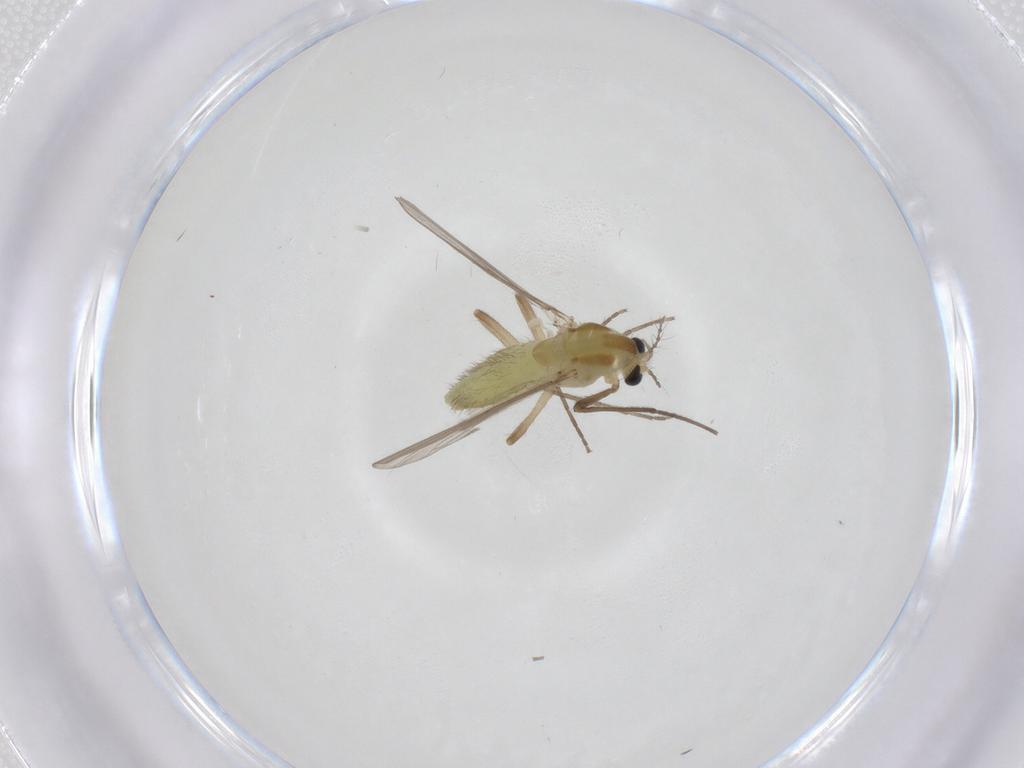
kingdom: Animalia
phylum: Arthropoda
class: Insecta
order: Diptera
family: Chironomidae
